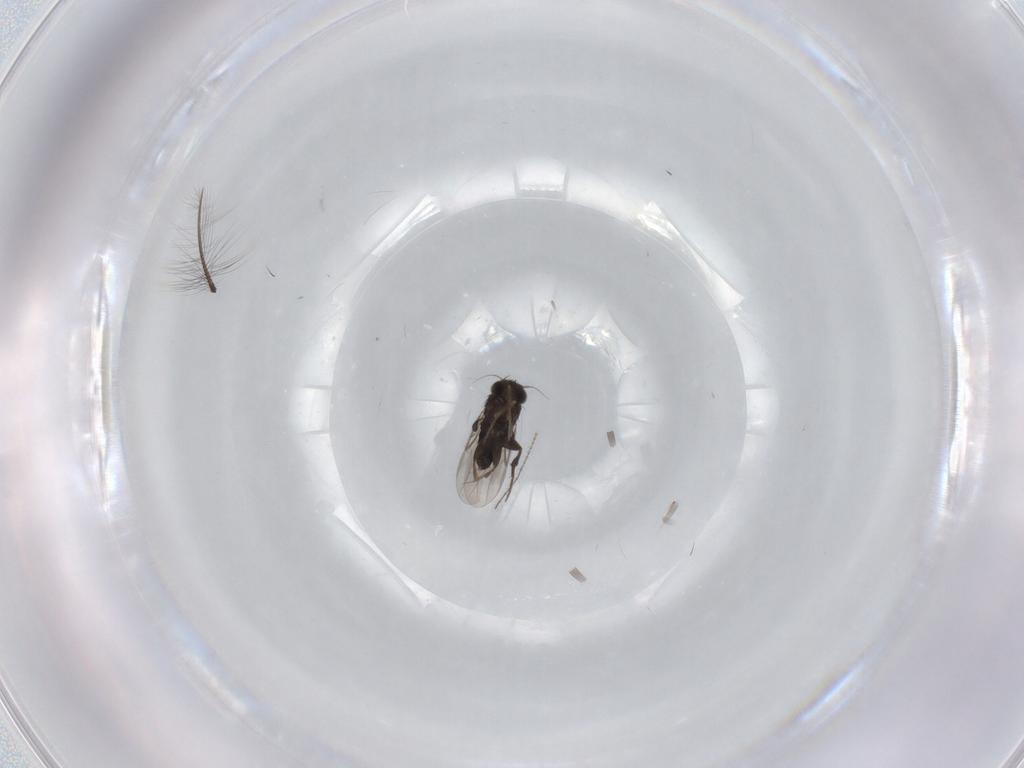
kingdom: Animalia
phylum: Arthropoda
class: Insecta
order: Diptera
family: Phoridae
